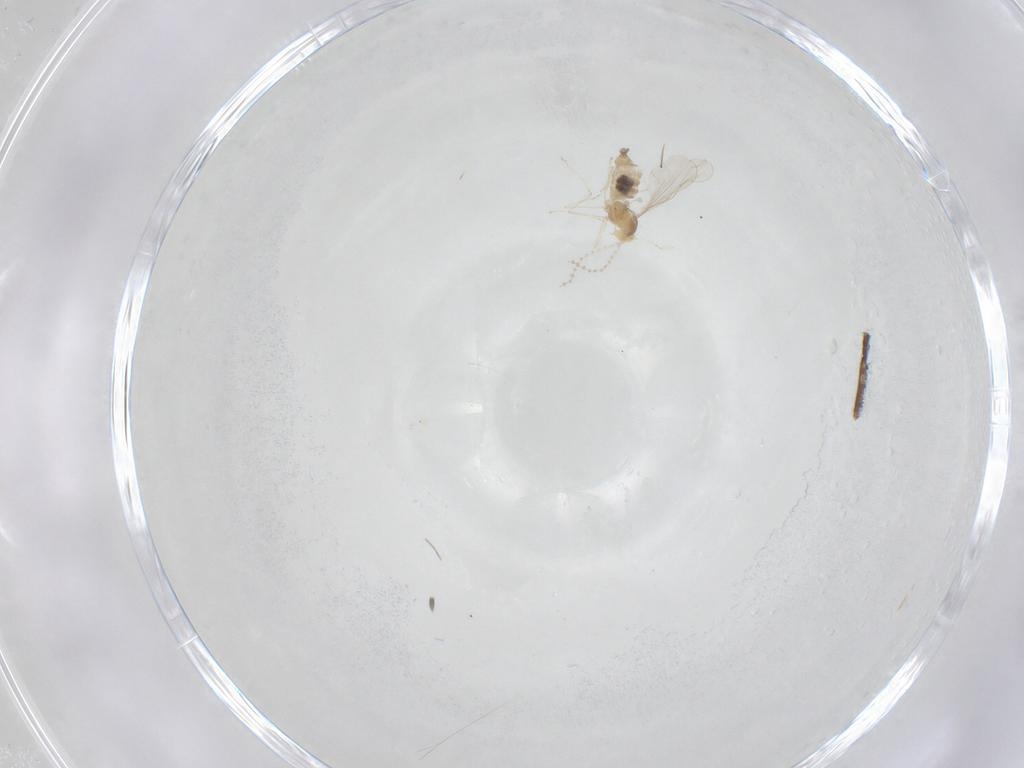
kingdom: Animalia
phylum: Arthropoda
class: Insecta
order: Diptera
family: Cecidomyiidae
